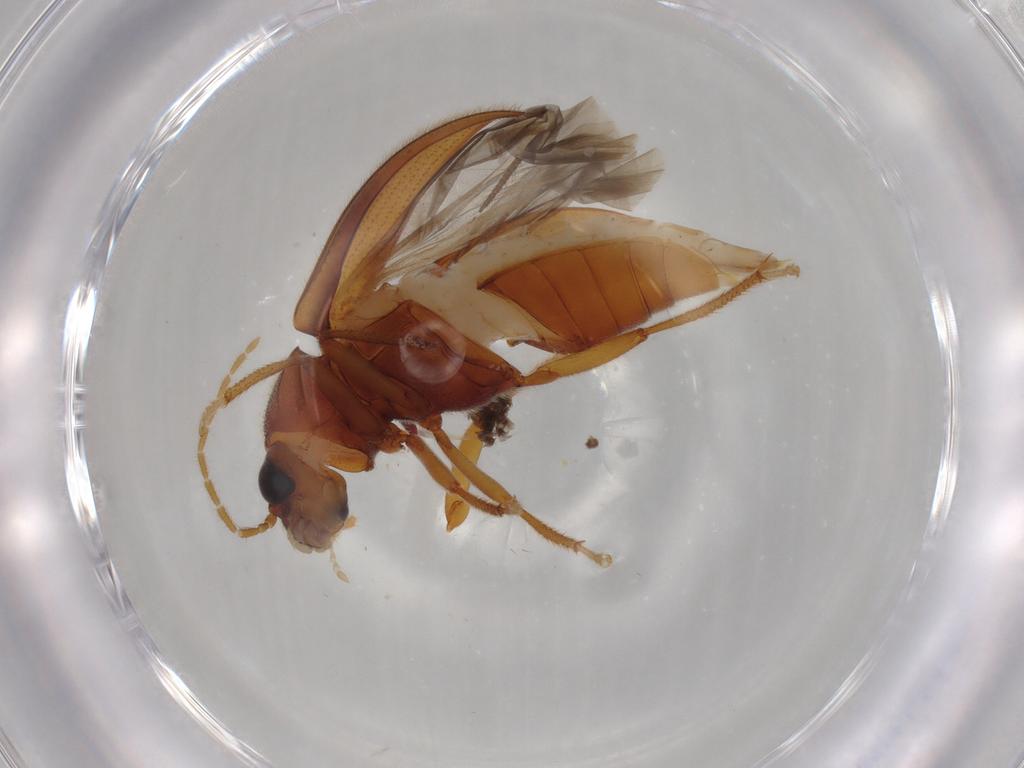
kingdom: Animalia
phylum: Arthropoda
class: Insecta
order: Coleoptera
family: Ptilodactylidae
